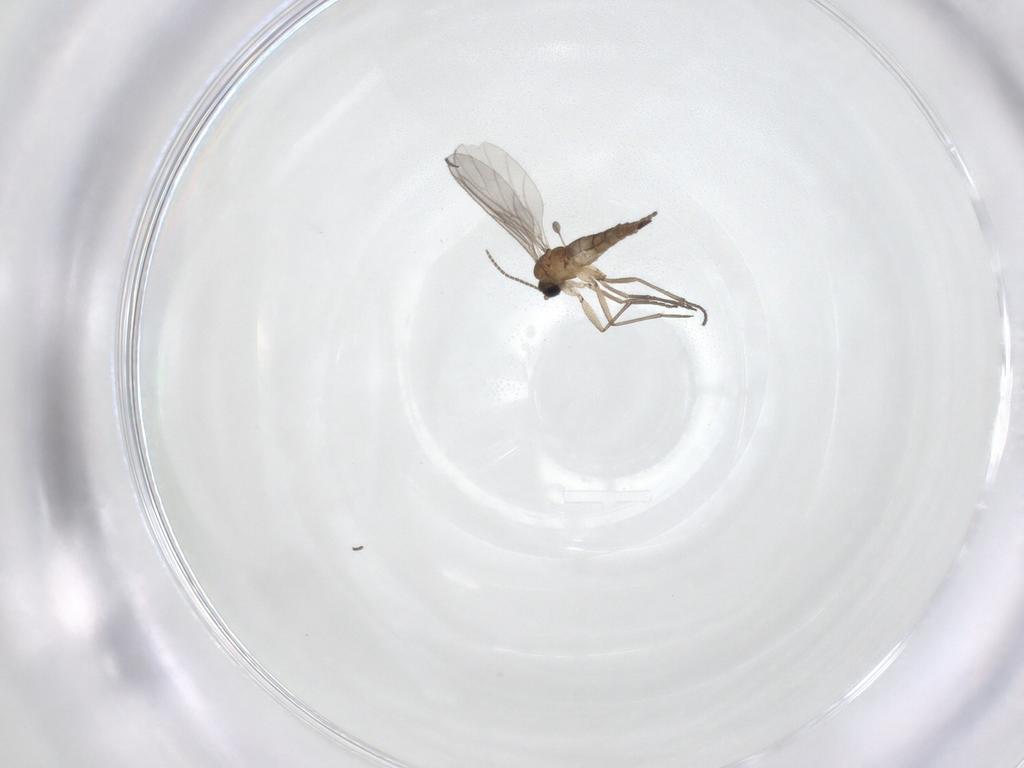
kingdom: Animalia
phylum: Arthropoda
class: Insecta
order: Diptera
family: Sciaridae
